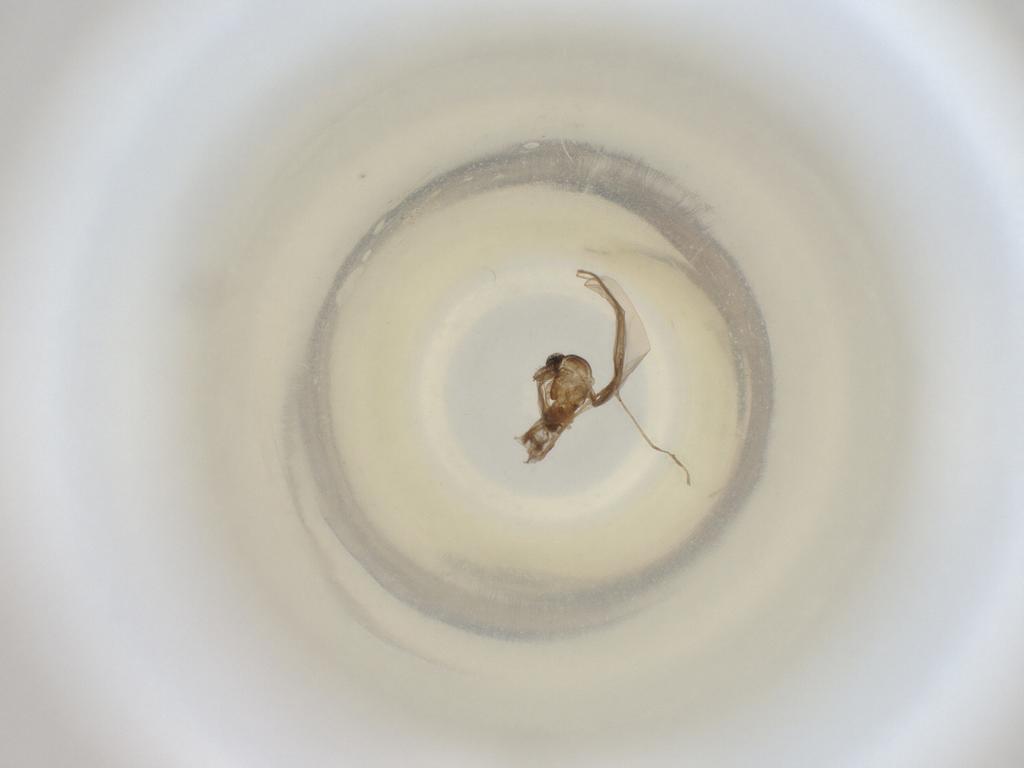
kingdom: Animalia
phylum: Arthropoda
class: Insecta
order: Diptera
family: Cecidomyiidae
